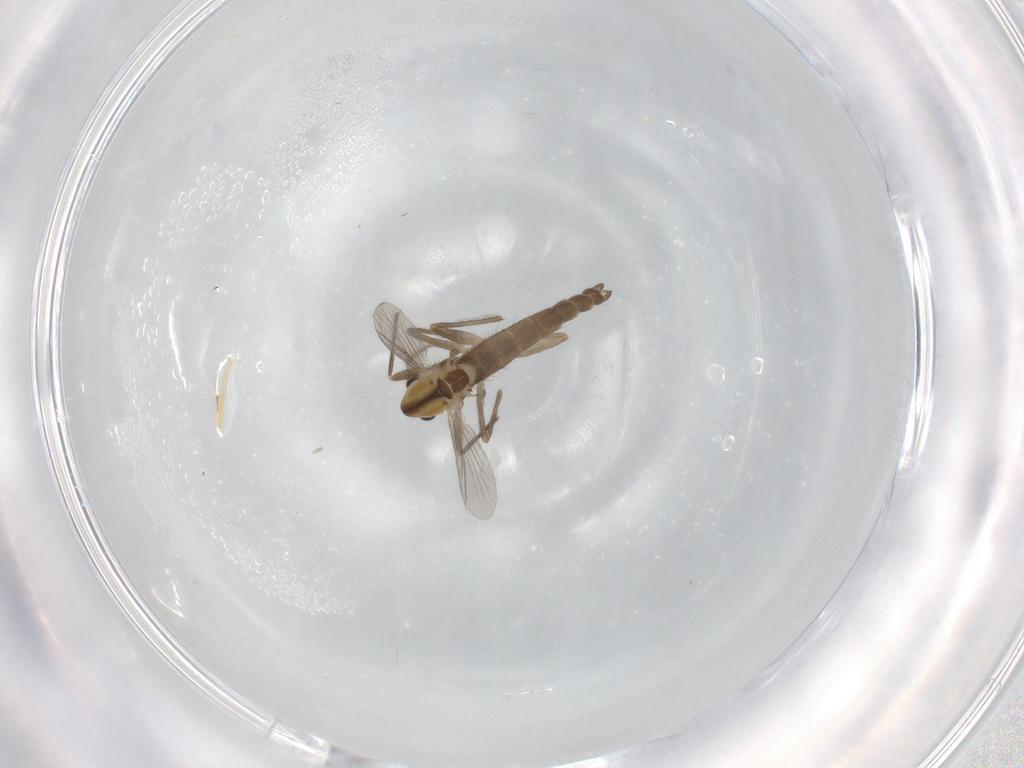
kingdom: Animalia
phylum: Arthropoda
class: Insecta
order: Diptera
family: Chironomidae
